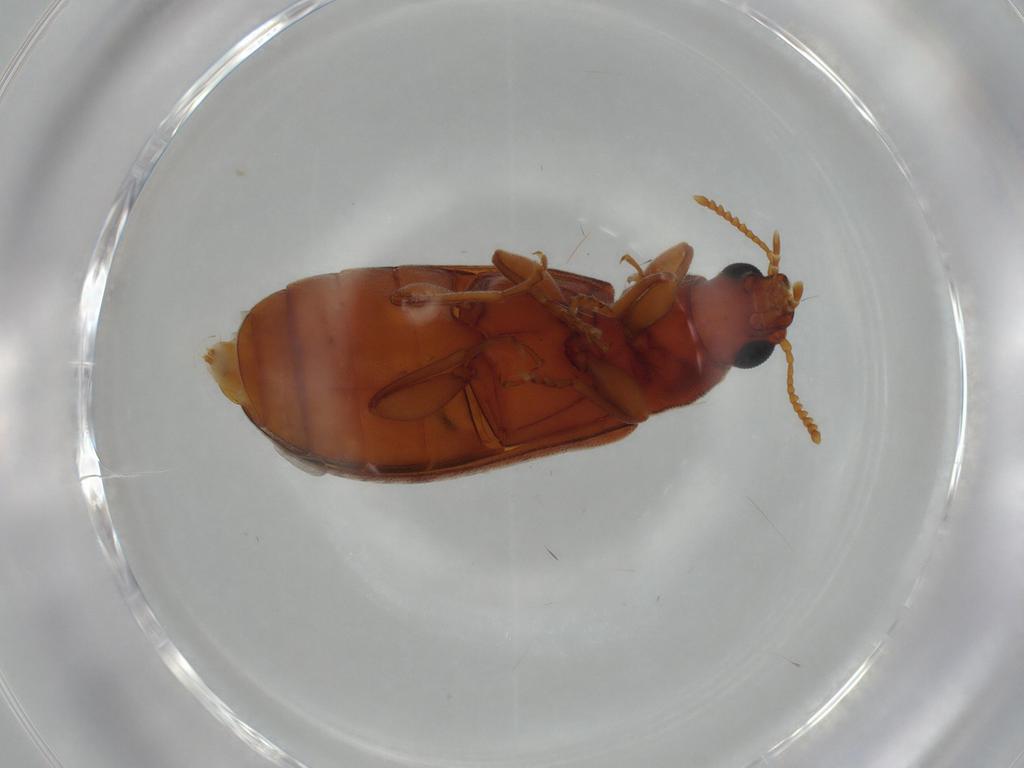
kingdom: Animalia
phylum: Arthropoda
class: Insecta
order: Coleoptera
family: Mycteridae
